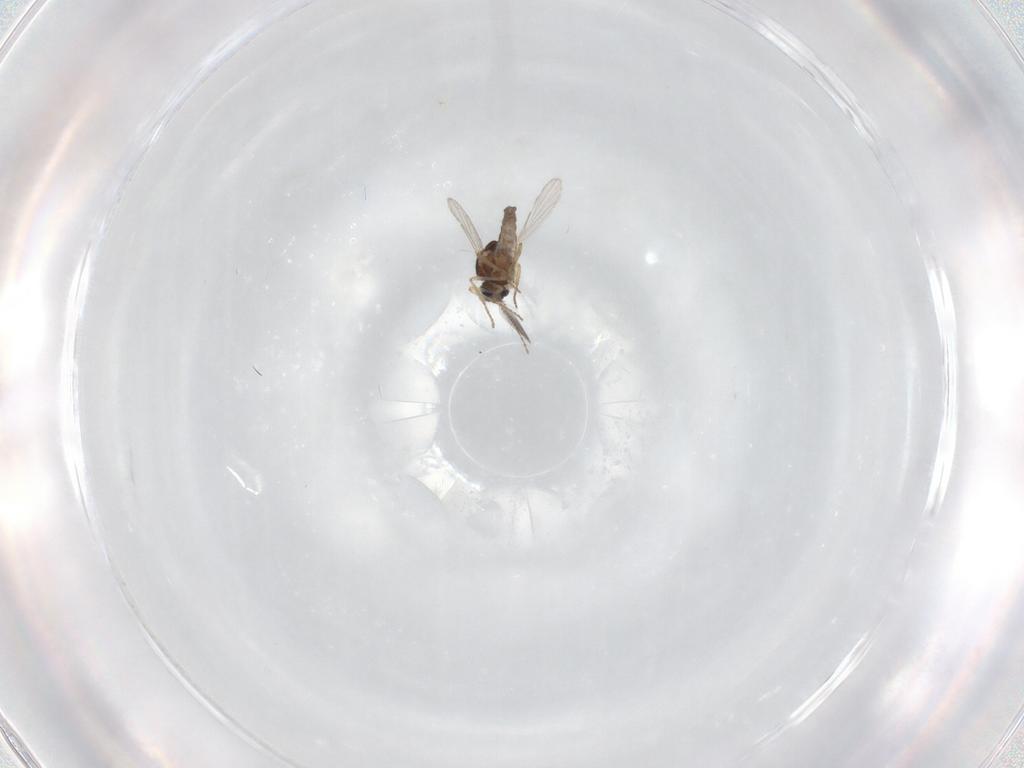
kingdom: Animalia
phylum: Arthropoda
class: Insecta
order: Diptera
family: Ceratopogonidae
